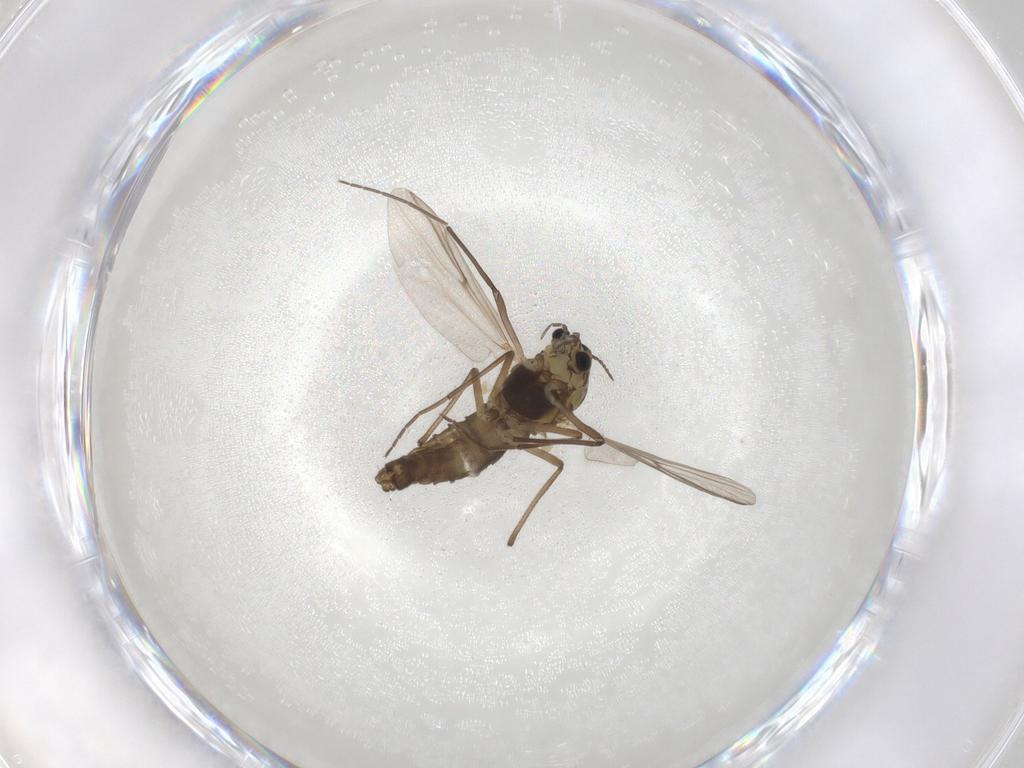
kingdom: Animalia
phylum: Arthropoda
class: Insecta
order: Diptera
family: Chironomidae
